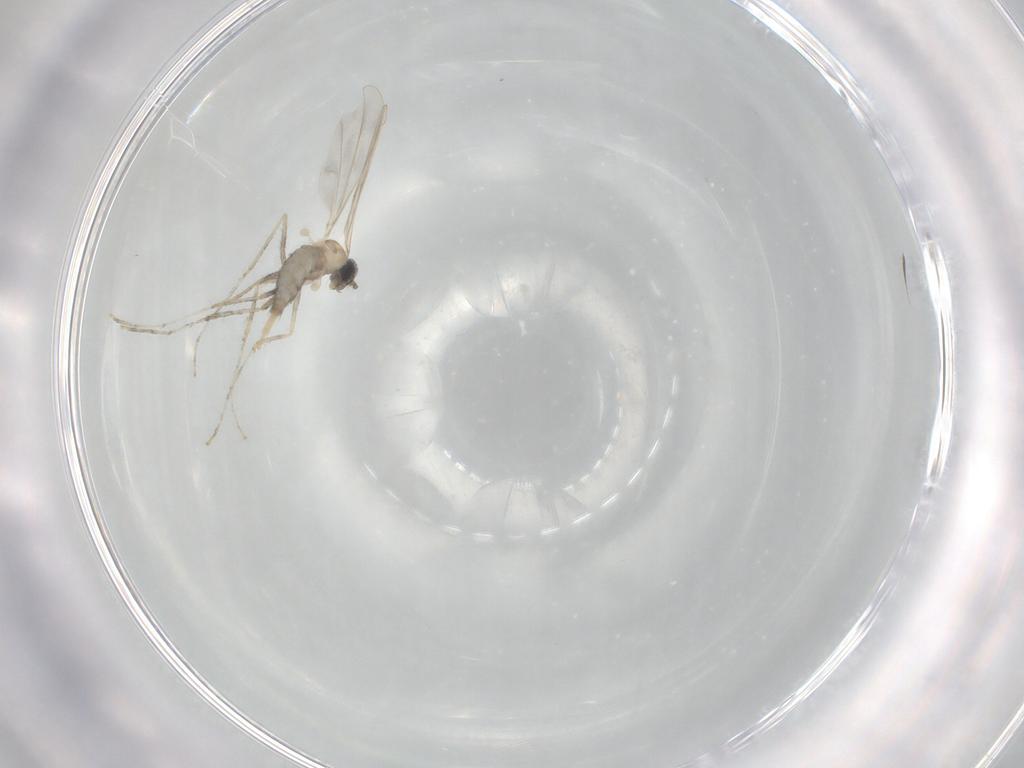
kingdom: Animalia
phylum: Arthropoda
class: Insecta
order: Diptera
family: Cecidomyiidae
